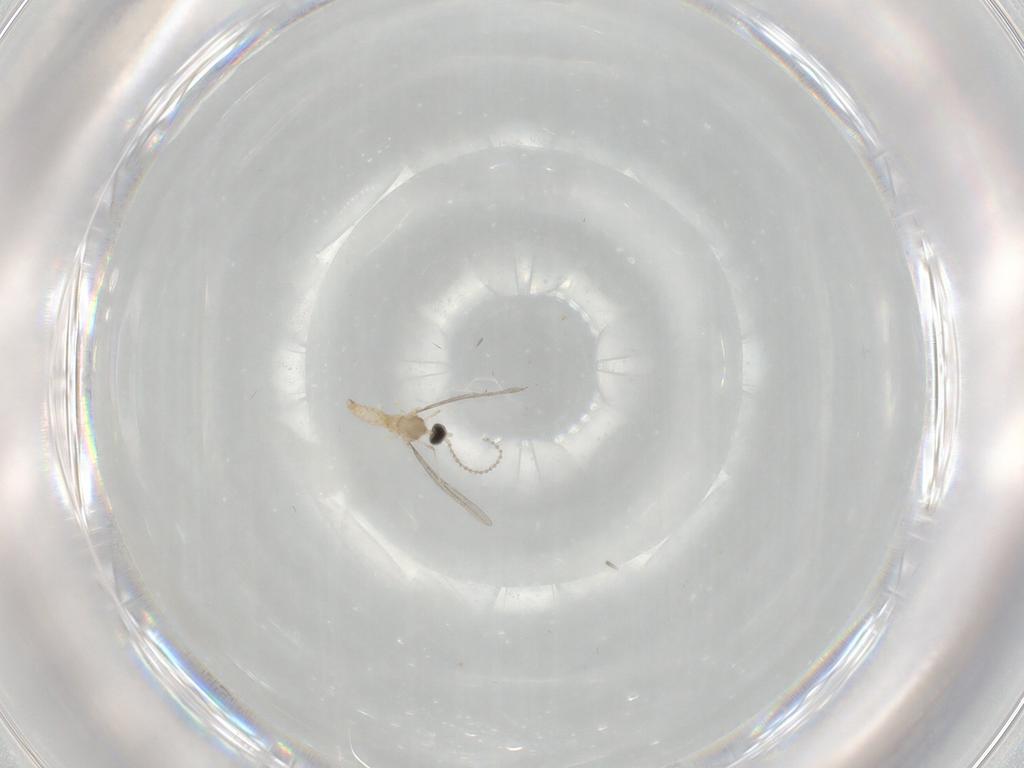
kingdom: Animalia
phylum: Arthropoda
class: Insecta
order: Diptera
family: Cecidomyiidae
